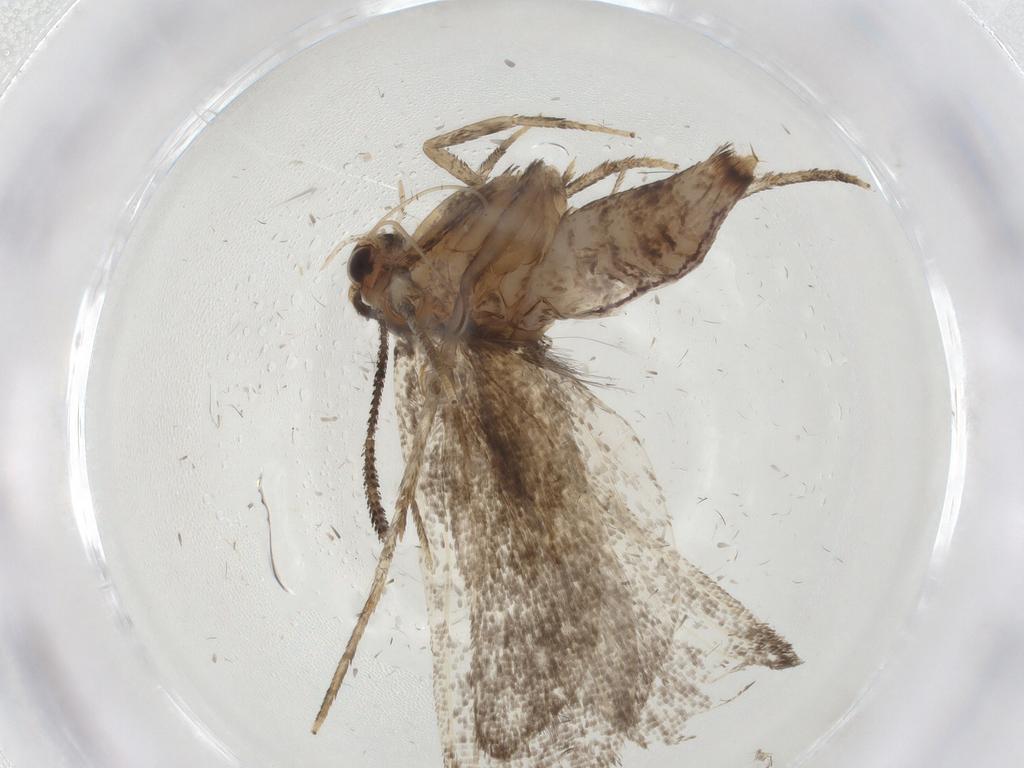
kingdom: Animalia
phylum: Arthropoda
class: Insecta
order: Lepidoptera
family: Choreutidae
